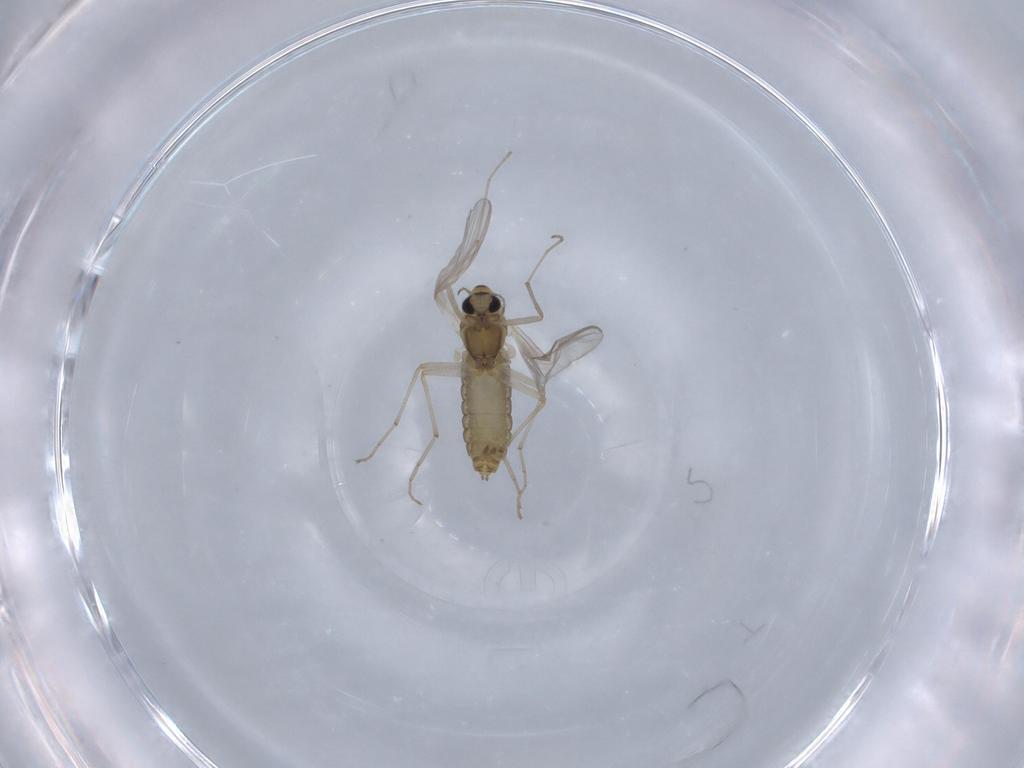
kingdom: Animalia
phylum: Arthropoda
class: Insecta
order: Diptera
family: Chironomidae
